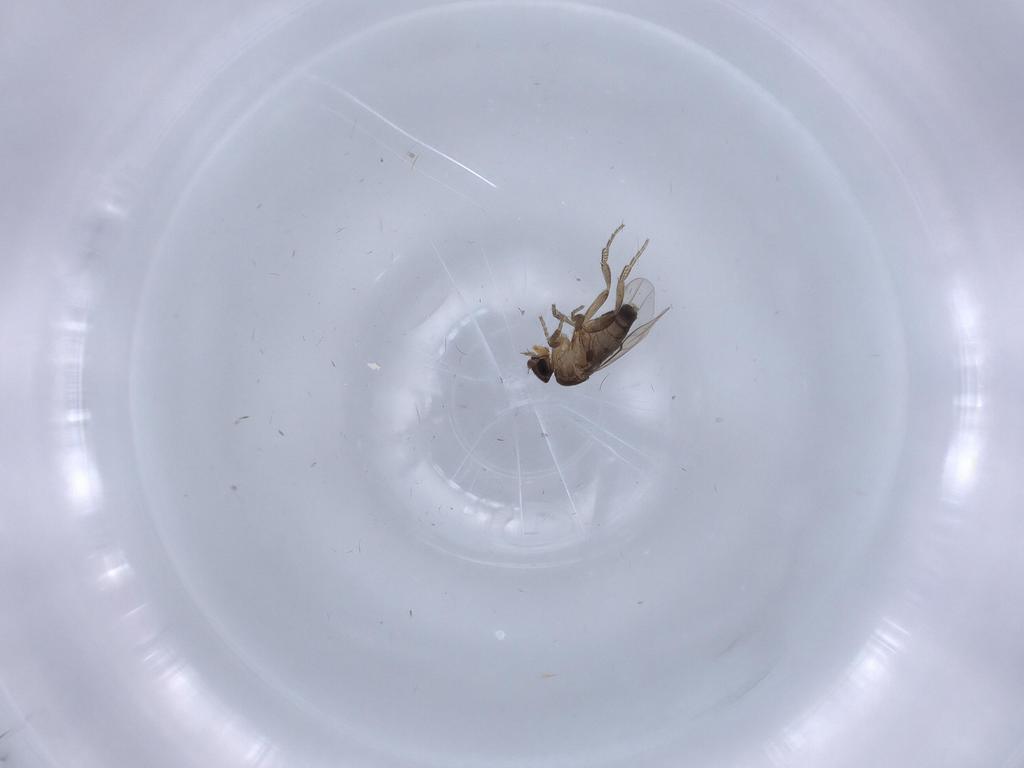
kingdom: Animalia
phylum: Arthropoda
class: Insecta
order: Diptera
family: Phoridae
